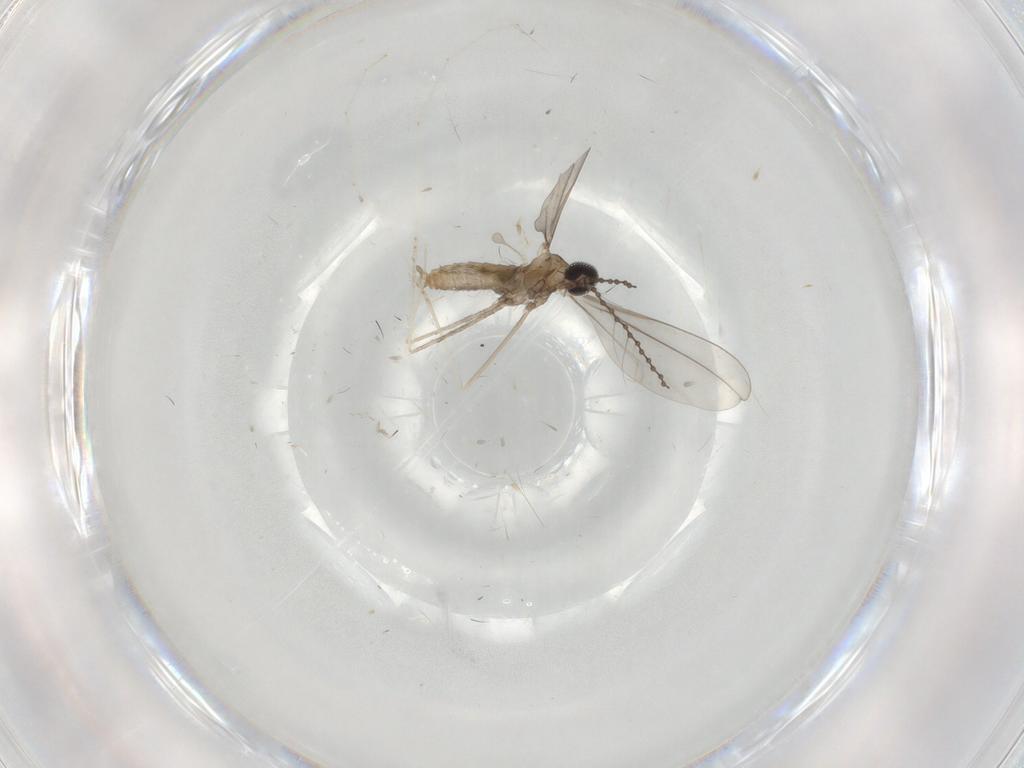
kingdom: Animalia
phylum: Arthropoda
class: Insecta
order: Diptera
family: Cecidomyiidae
